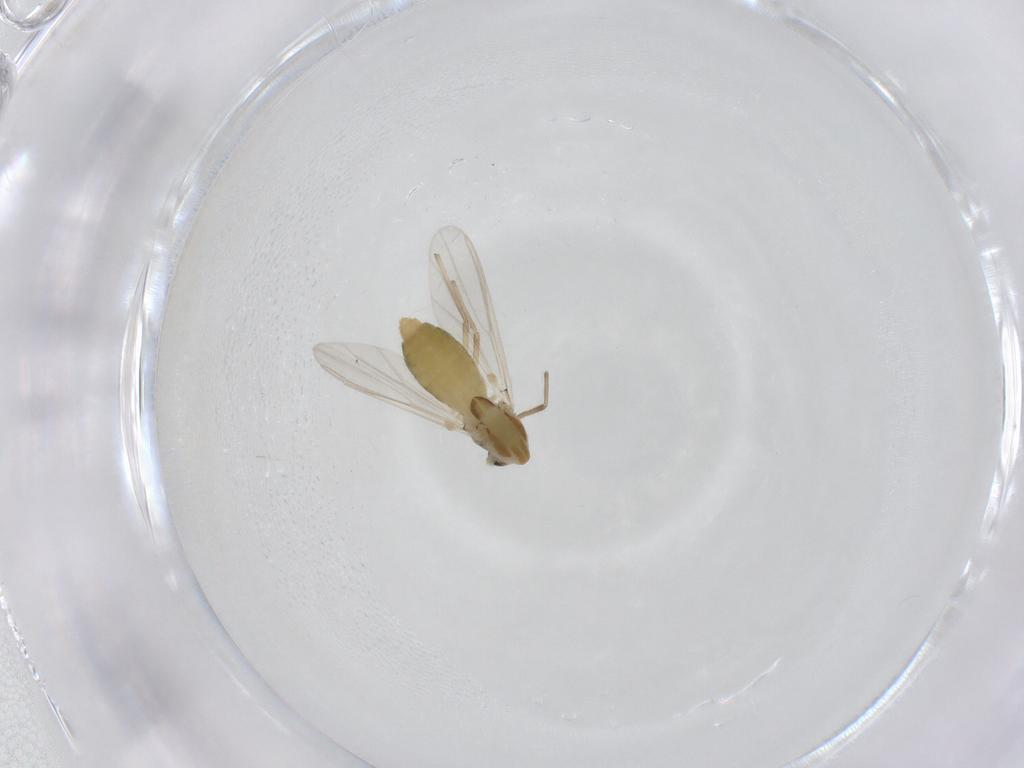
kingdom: Animalia
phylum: Arthropoda
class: Insecta
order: Diptera
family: Chironomidae
